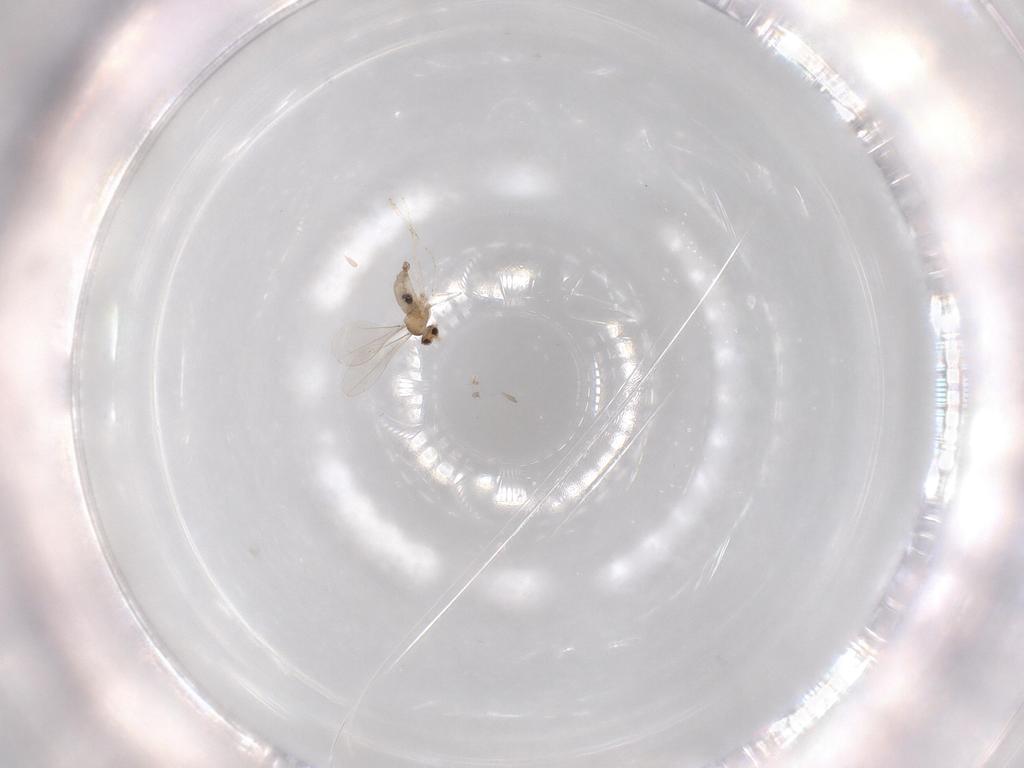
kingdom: Animalia
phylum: Arthropoda
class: Insecta
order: Diptera
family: Cecidomyiidae
